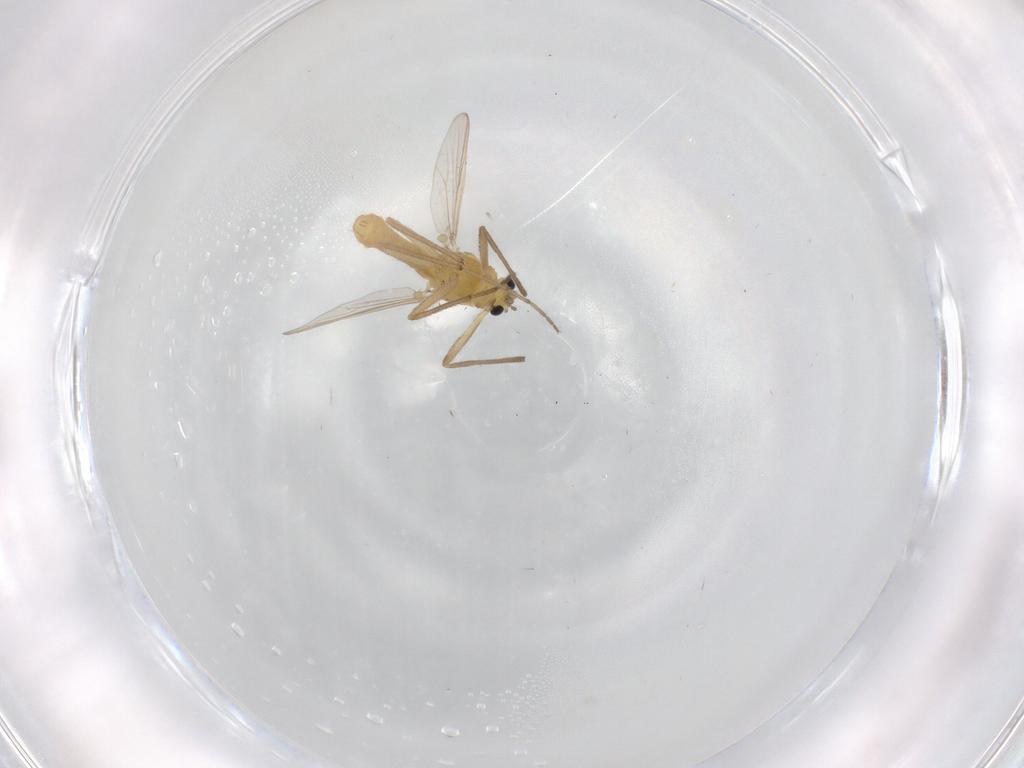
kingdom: Animalia
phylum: Arthropoda
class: Insecta
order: Diptera
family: Chironomidae
